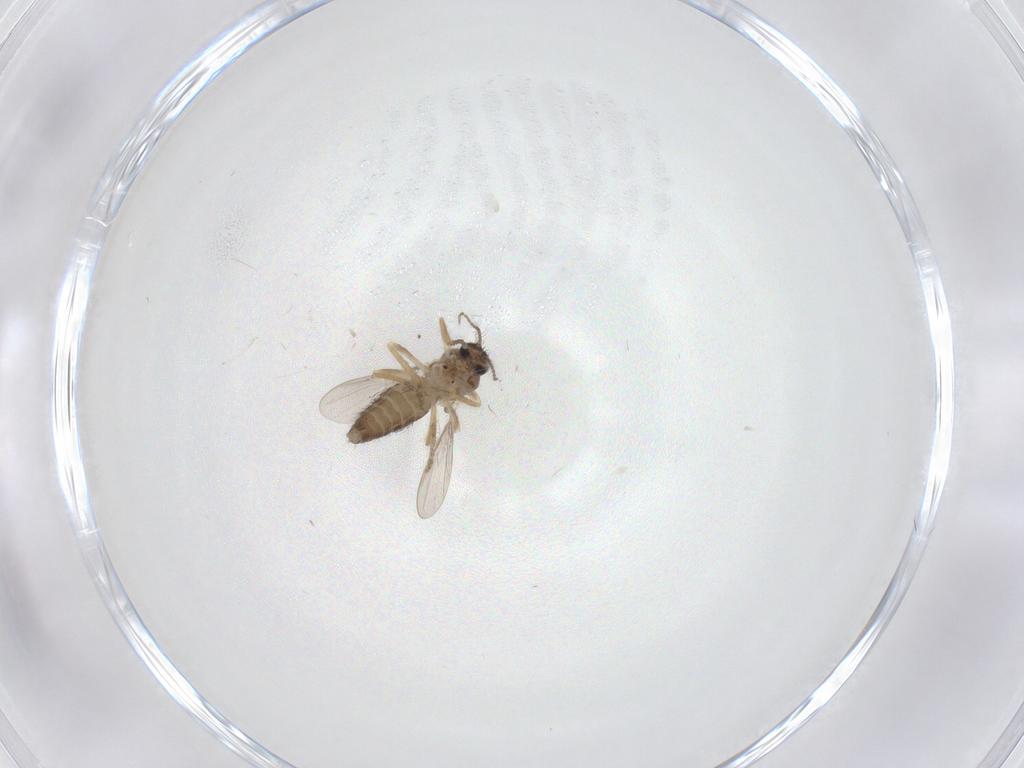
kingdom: Animalia
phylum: Arthropoda
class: Insecta
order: Diptera
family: Ceratopogonidae
